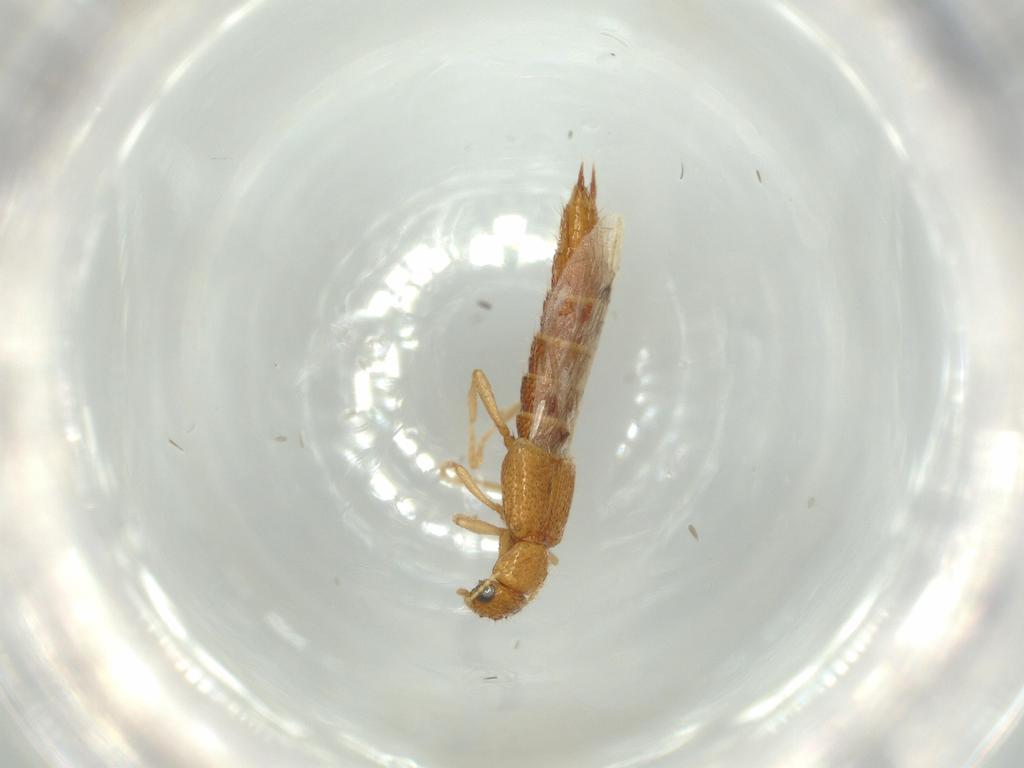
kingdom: Animalia
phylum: Arthropoda
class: Insecta
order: Coleoptera
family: Staphylinidae
